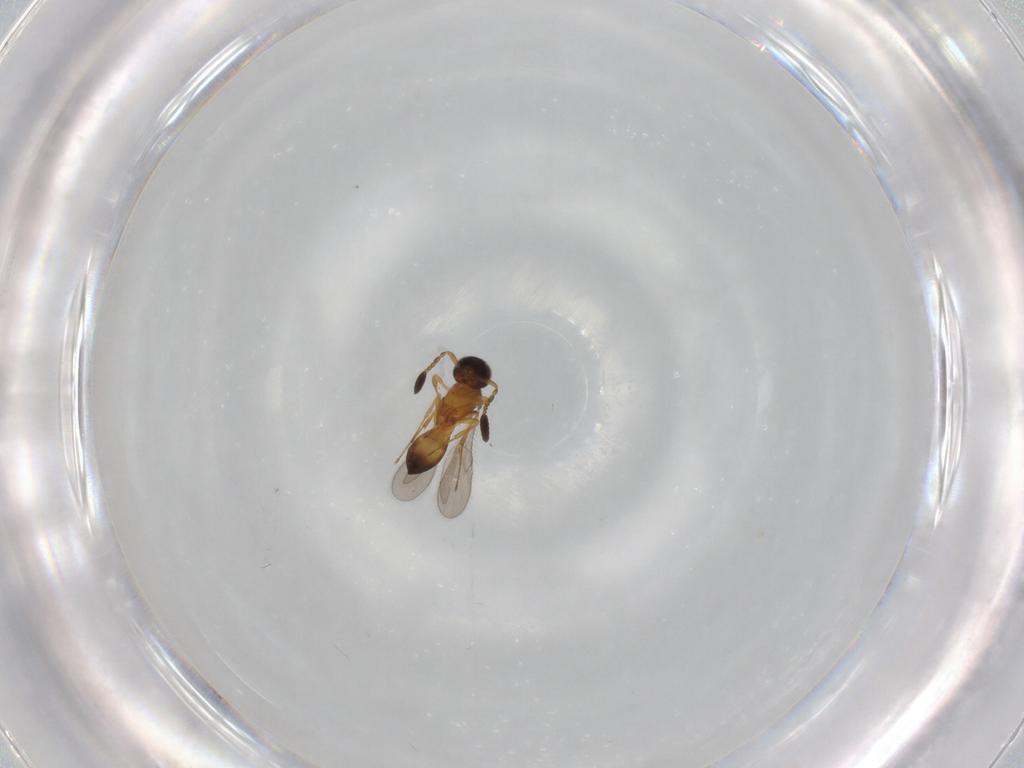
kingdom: Animalia
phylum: Arthropoda
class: Insecta
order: Hymenoptera
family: Scelionidae
